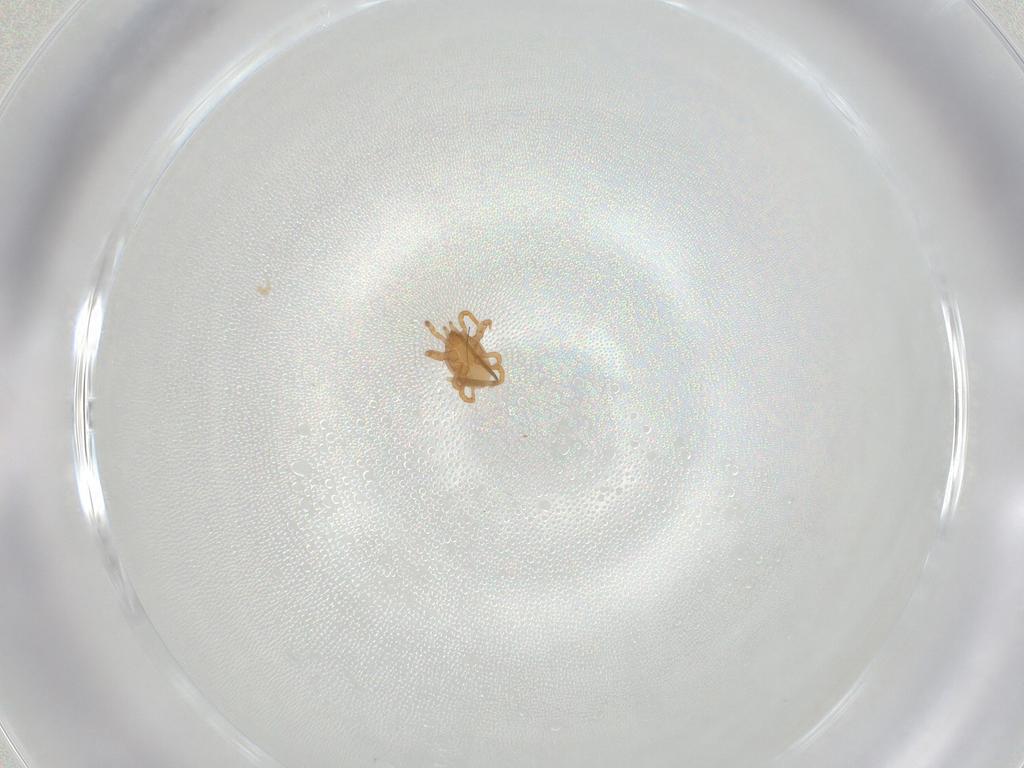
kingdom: Animalia
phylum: Arthropoda
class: Arachnida
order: Mesostigmata
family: Parasitidae
